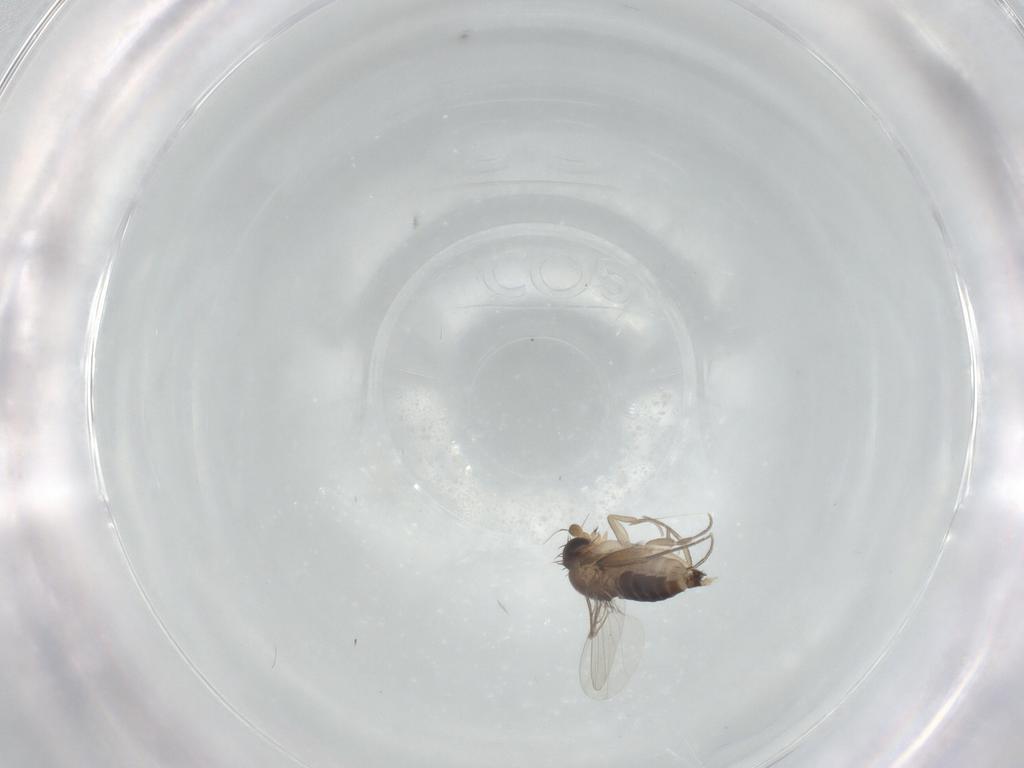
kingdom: Animalia
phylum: Arthropoda
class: Insecta
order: Diptera
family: Phoridae
